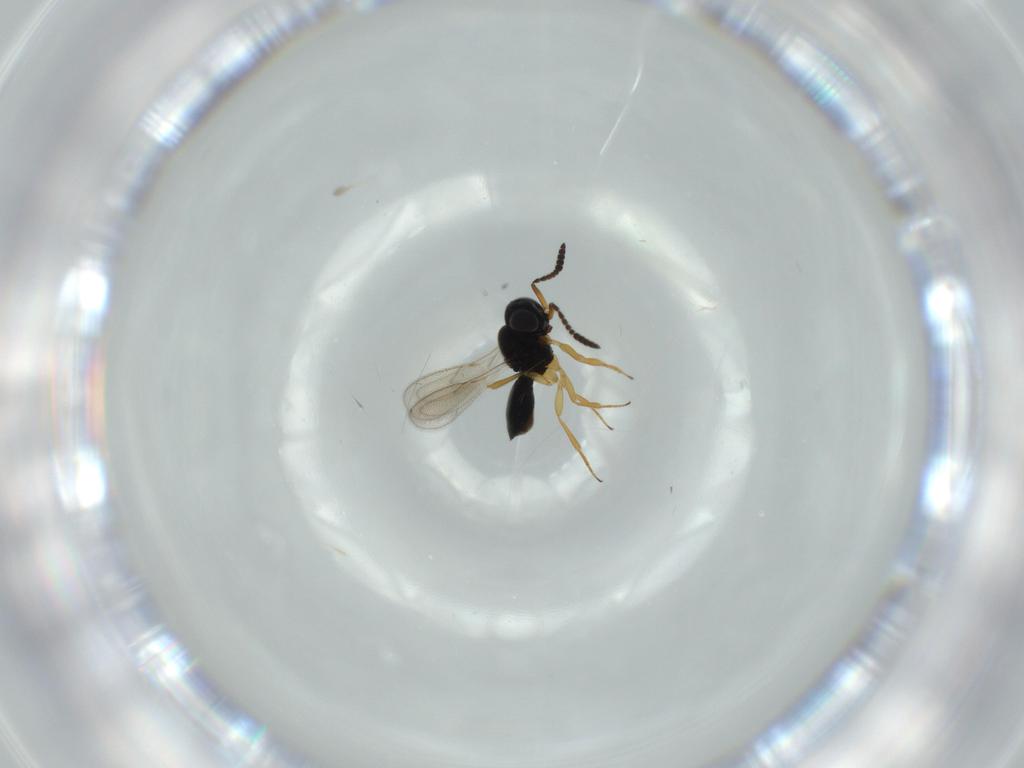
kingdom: Animalia
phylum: Arthropoda
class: Insecta
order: Hymenoptera
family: Scelionidae
